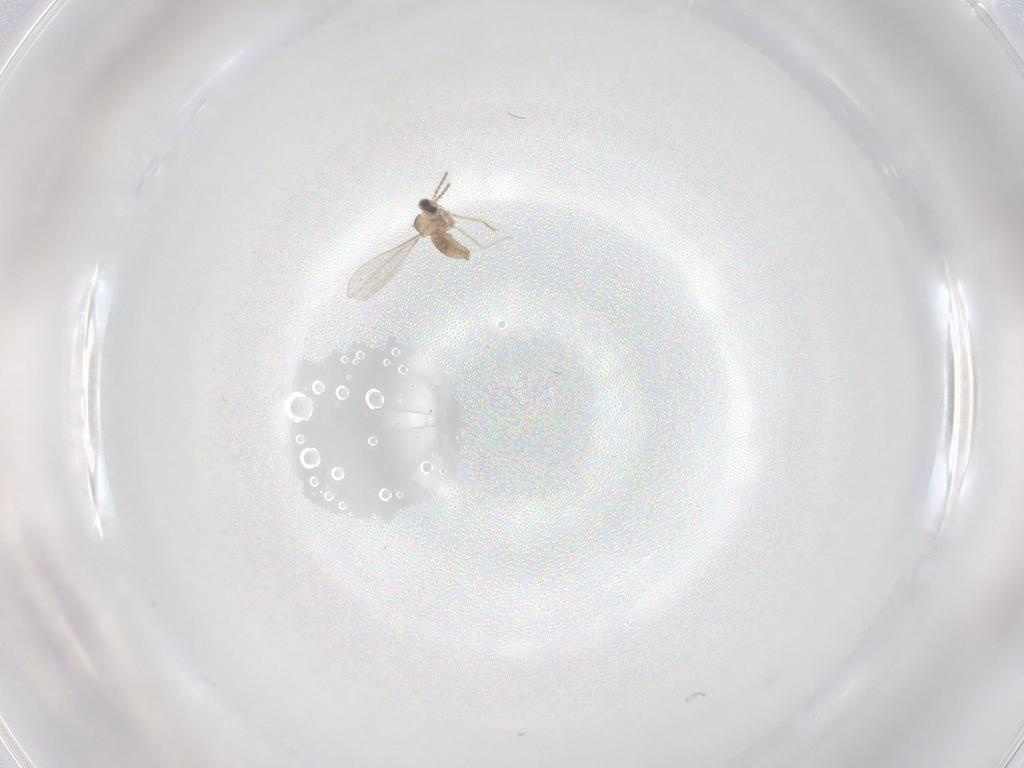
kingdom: Animalia
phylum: Arthropoda
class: Insecta
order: Diptera
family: Cecidomyiidae
